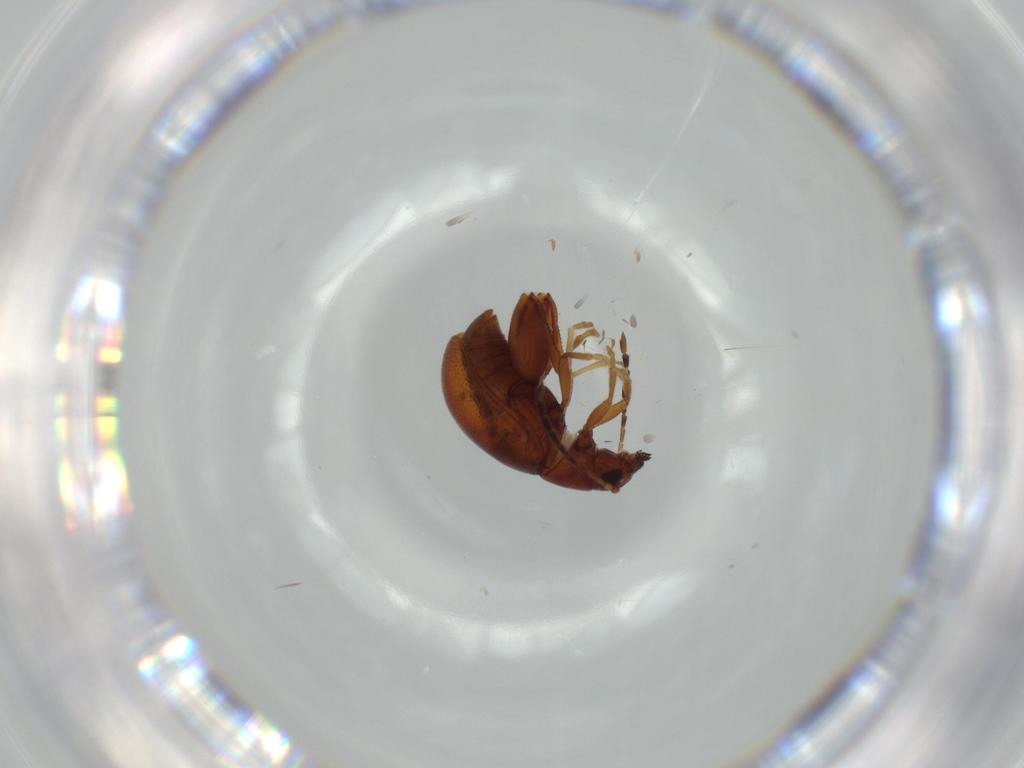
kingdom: Animalia
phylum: Arthropoda
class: Insecta
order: Coleoptera
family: Chrysomelidae
